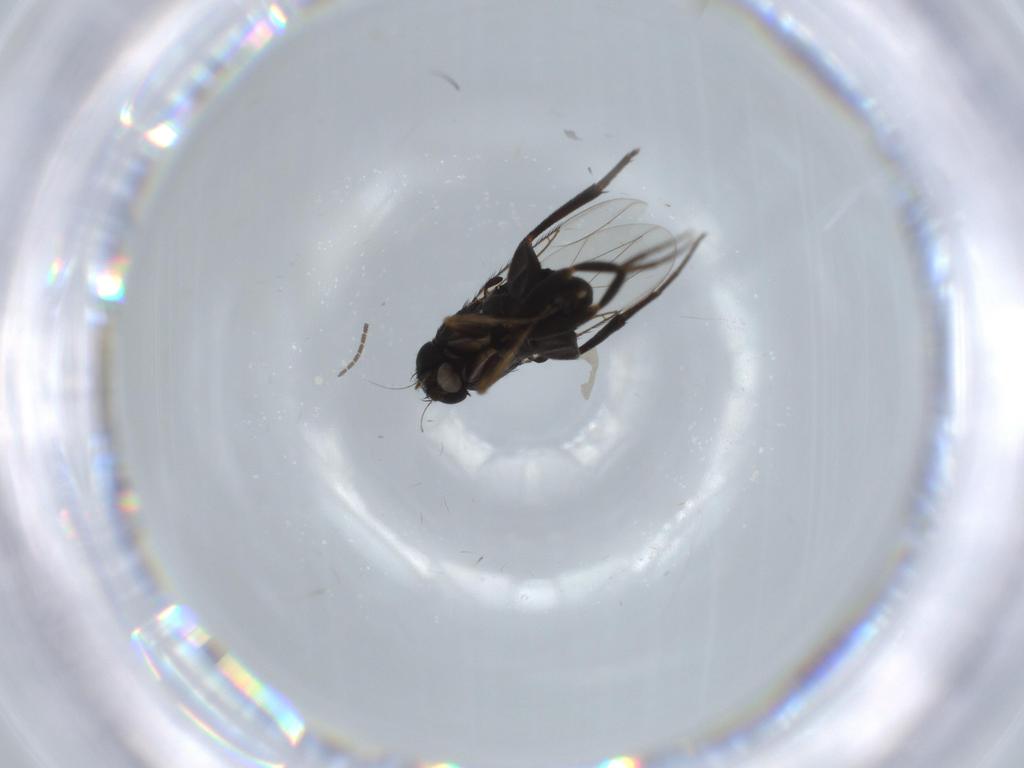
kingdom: Animalia
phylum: Arthropoda
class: Insecta
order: Diptera
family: Phoridae
